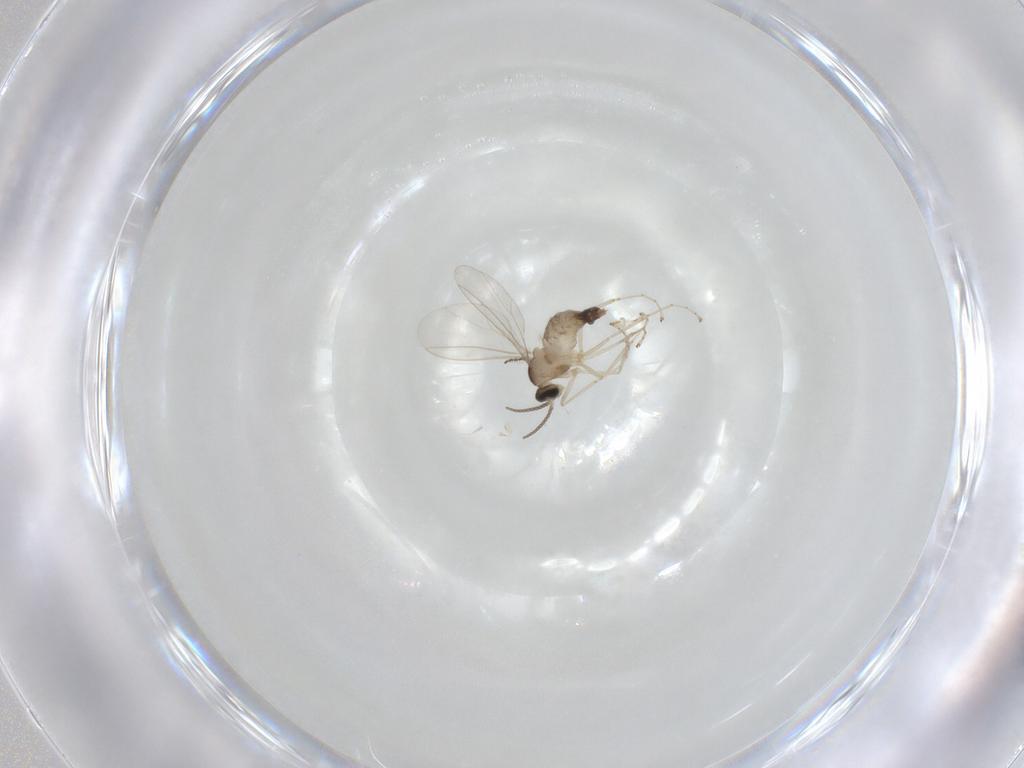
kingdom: Animalia
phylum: Arthropoda
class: Insecta
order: Diptera
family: Cecidomyiidae
